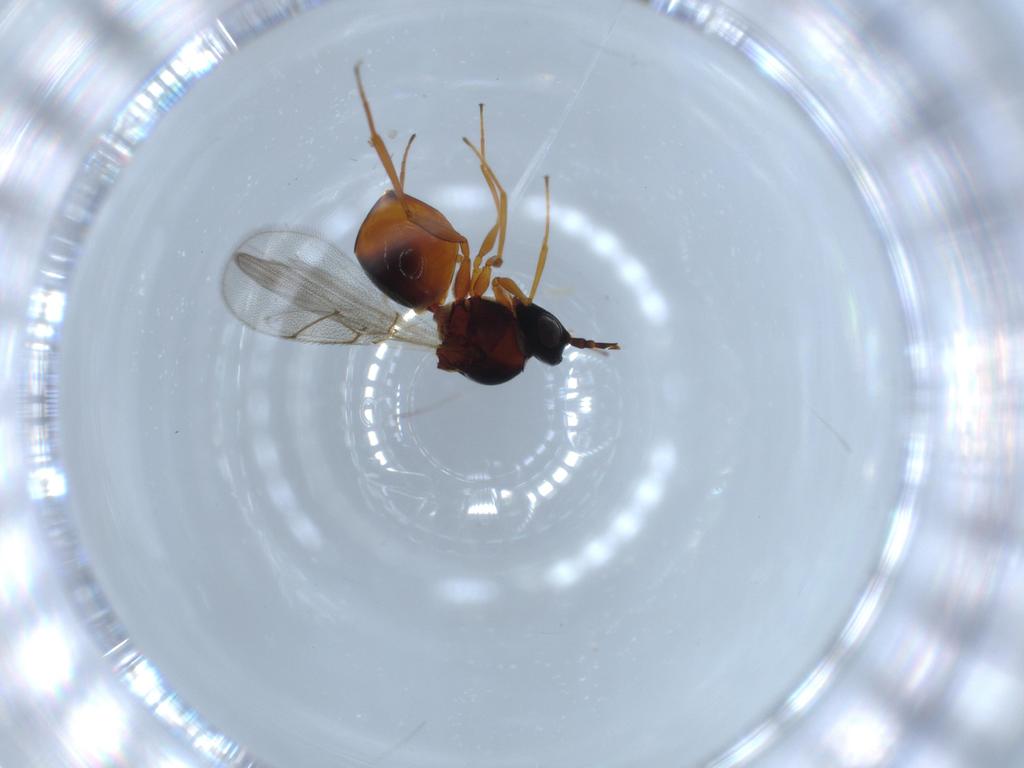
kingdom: Animalia
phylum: Arthropoda
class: Insecta
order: Hymenoptera
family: Figitidae
